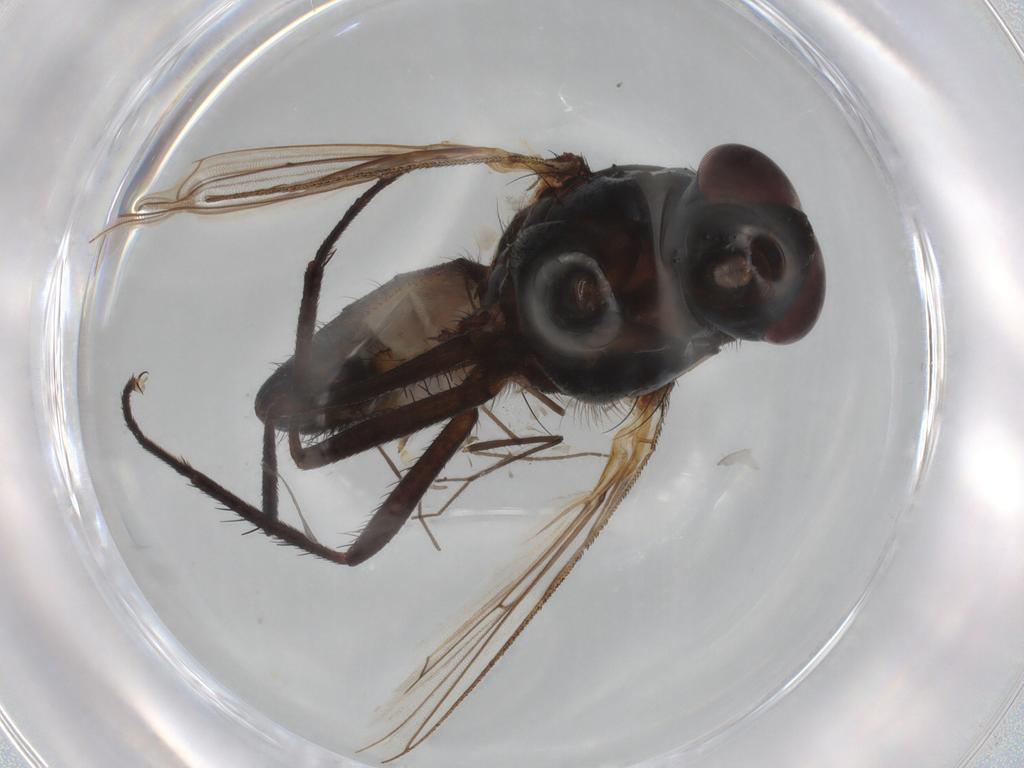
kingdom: Animalia
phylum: Arthropoda
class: Insecta
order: Diptera
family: Anthomyiidae
